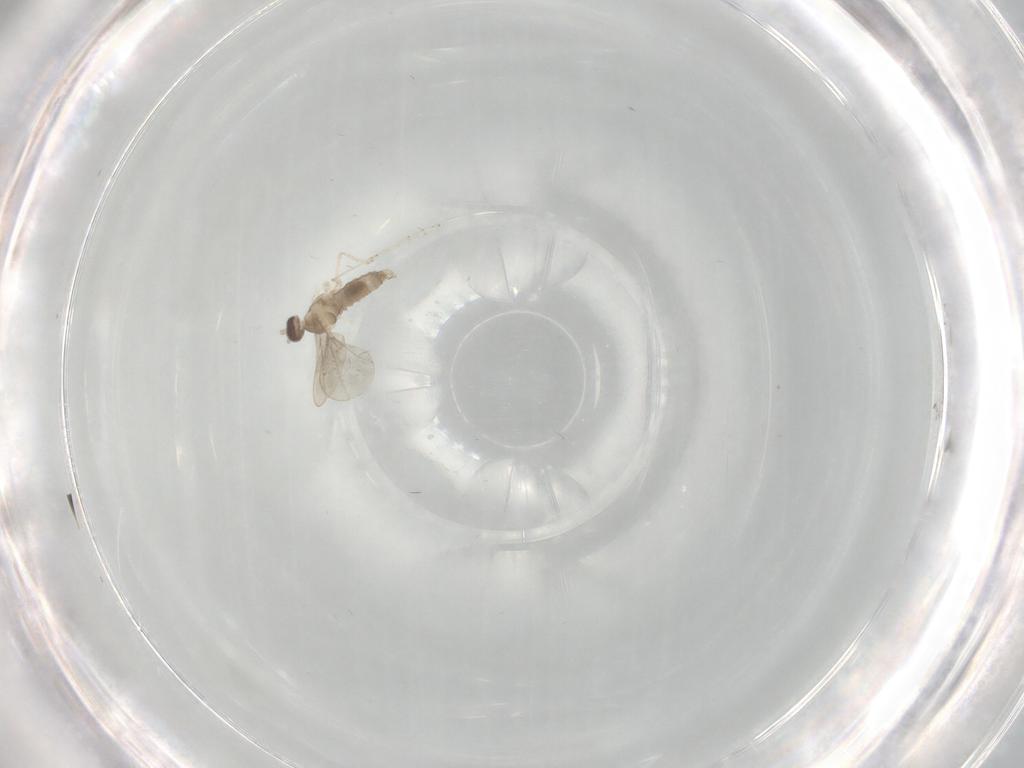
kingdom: Animalia
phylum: Arthropoda
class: Insecta
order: Diptera
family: Cecidomyiidae
